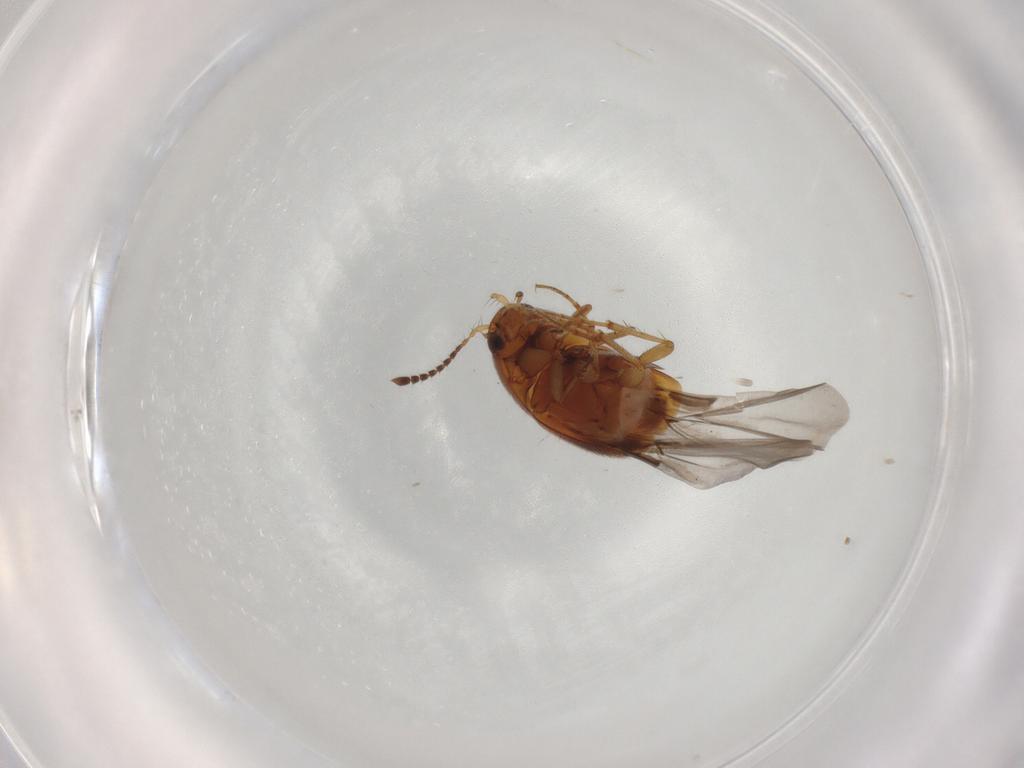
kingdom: Animalia
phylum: Arthropoda
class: Insecta
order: Coleoptera
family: Staphylinidae
